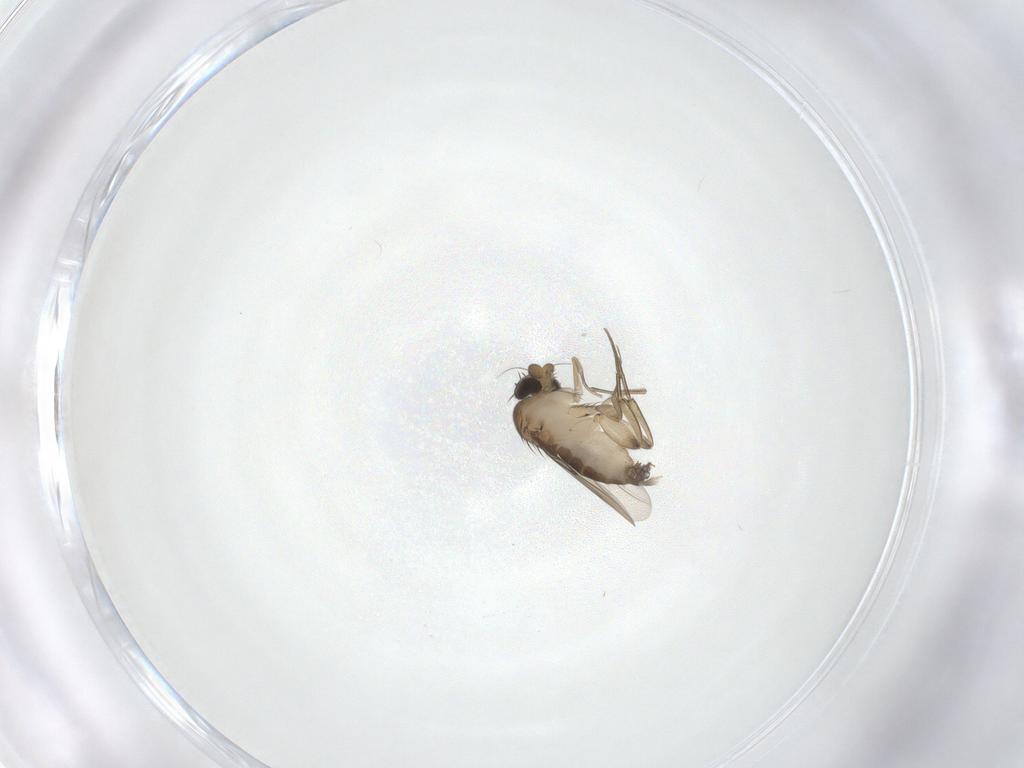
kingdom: Animalia
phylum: Arthropoda
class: Insecta
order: Diptera
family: Phoridae
